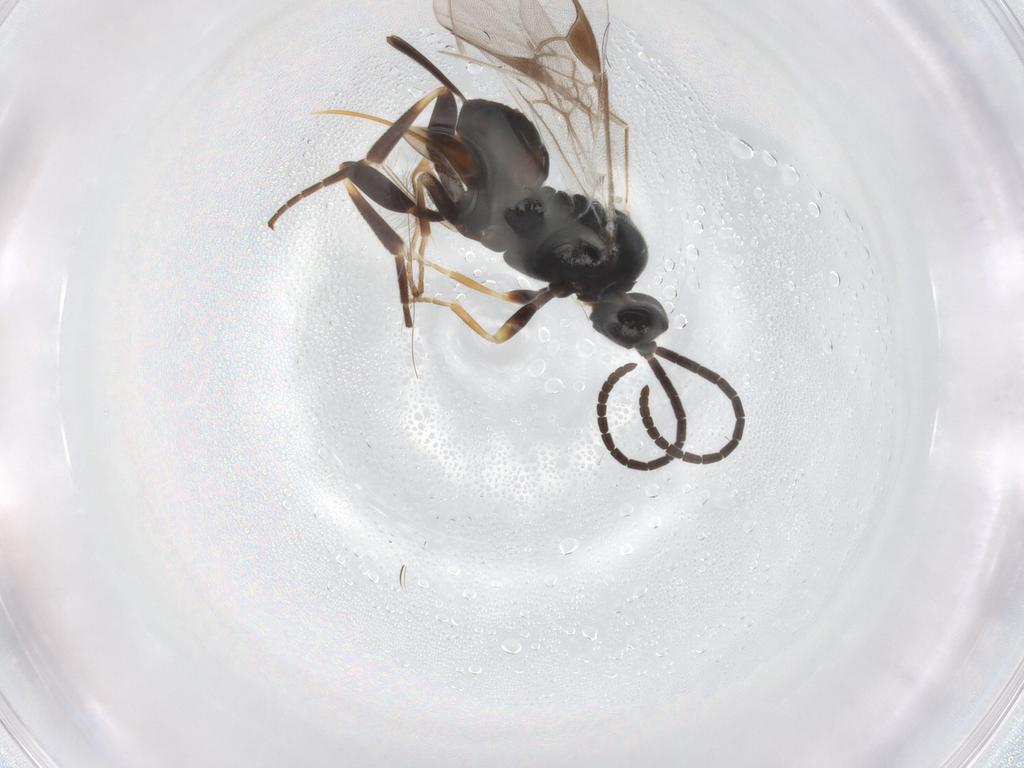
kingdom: Animalia
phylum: Arthropoda
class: Insecta
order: Hymenoptera
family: Braconidae
